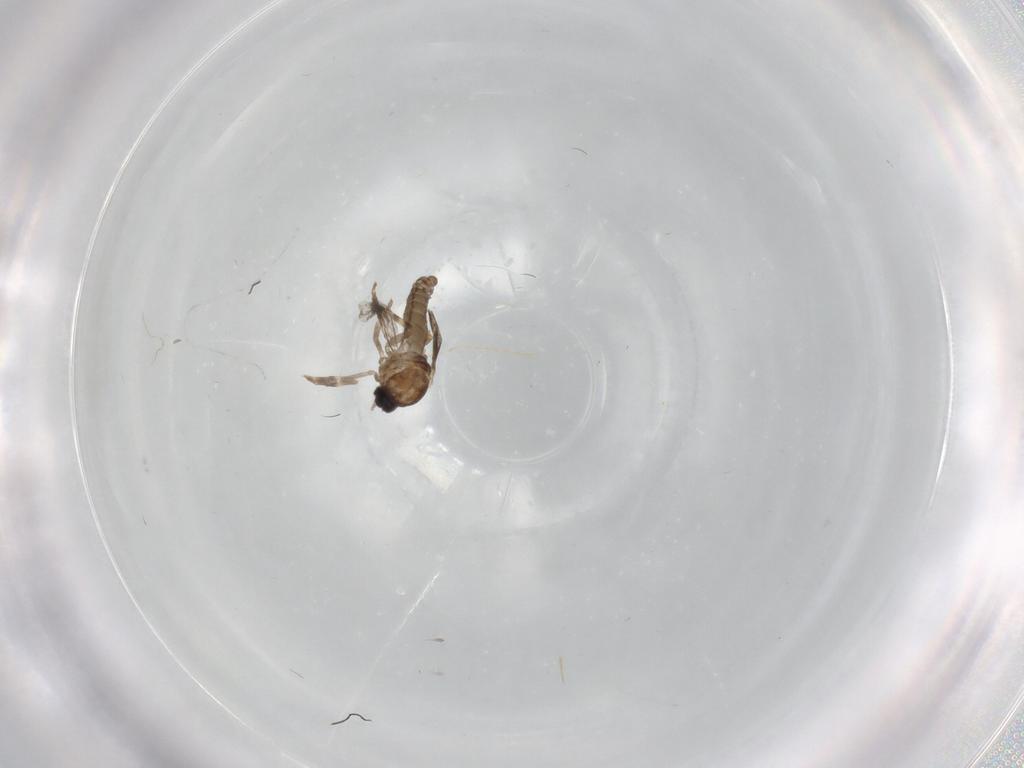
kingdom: Animalia
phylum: Arthropoda
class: Insecta
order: Diptera
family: Ceratopogonidae
